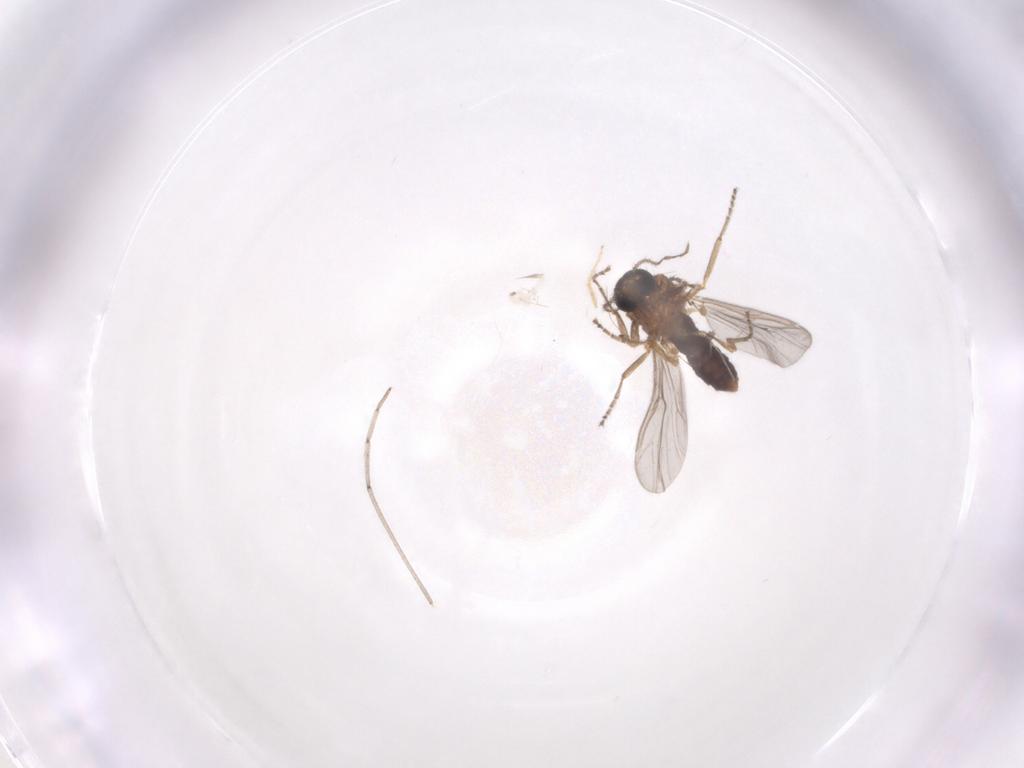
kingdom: Animalia
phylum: Arthropoda
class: Insecta
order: Diptera
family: Ceratopogonidae
